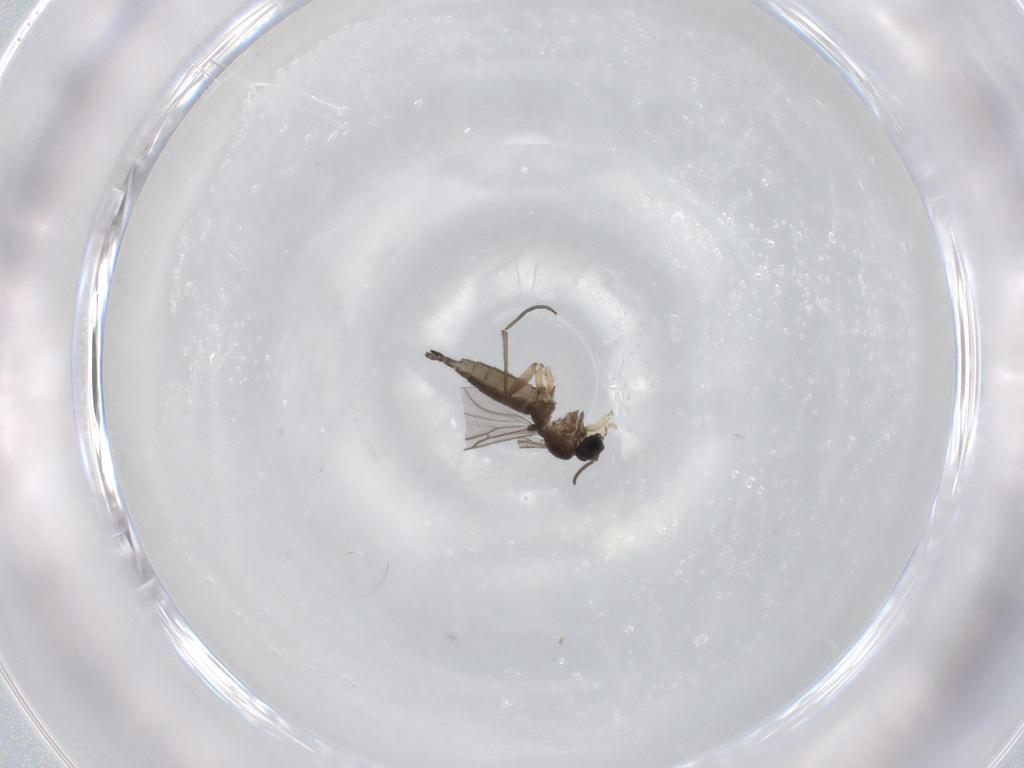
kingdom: Animalia
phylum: Arthropoda
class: Insecta
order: Diptera
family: Sciaridae
